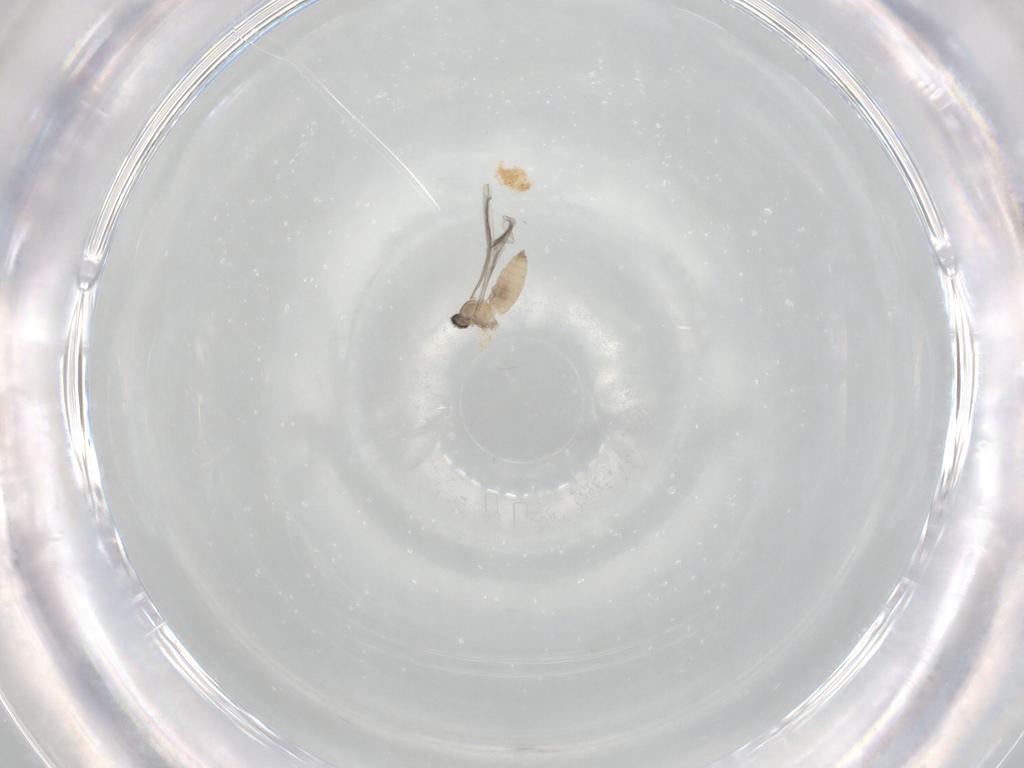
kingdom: Animalia
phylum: Arthropoda
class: Insecta
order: Diptera
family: Cecidomyiidae
